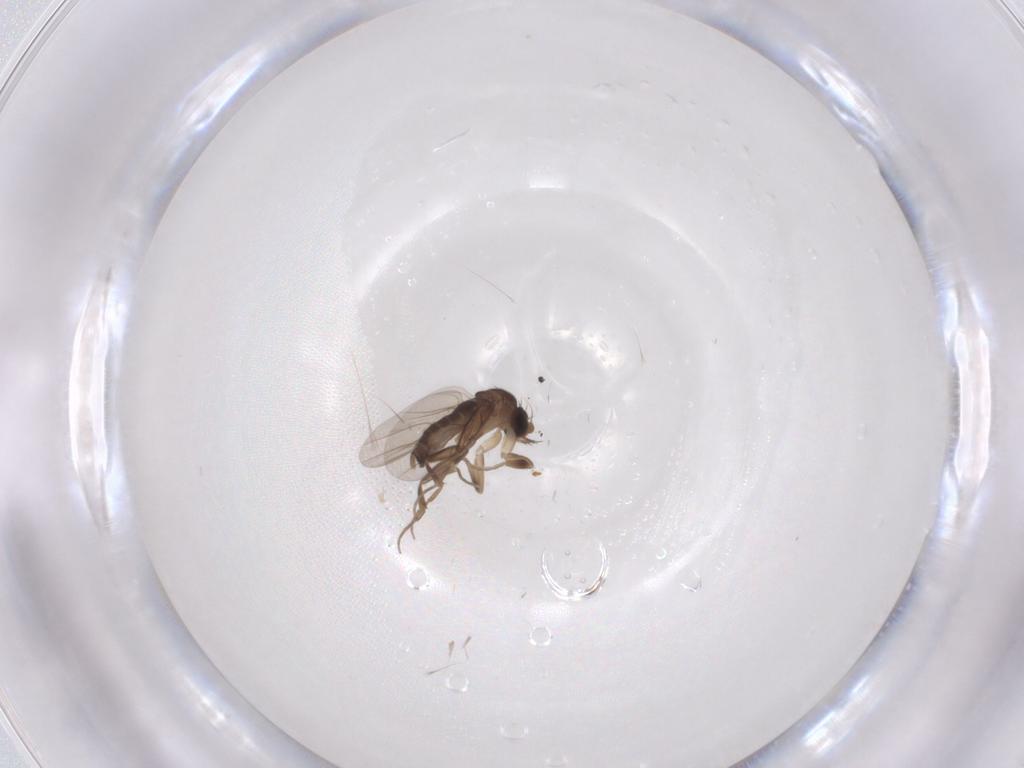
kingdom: Animalia
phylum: Arthropoda
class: Insecta
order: Diptera
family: Phoridae
